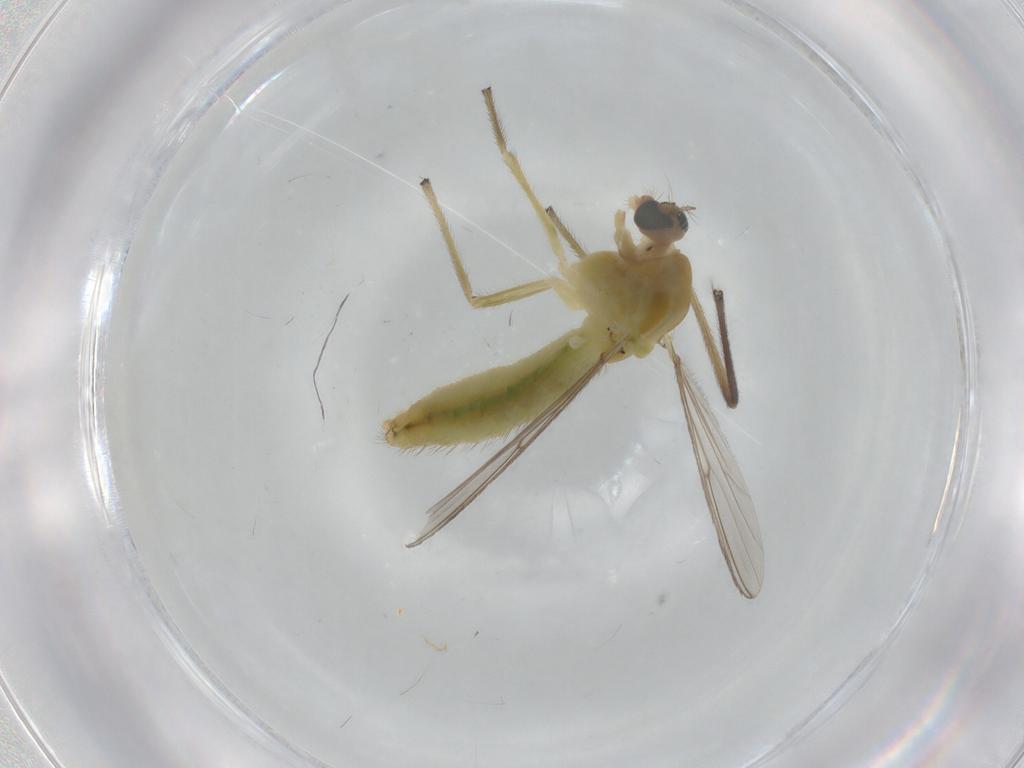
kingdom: Animalia
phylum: Arthropoda
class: Insecta
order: Diptera
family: Chironomidae
